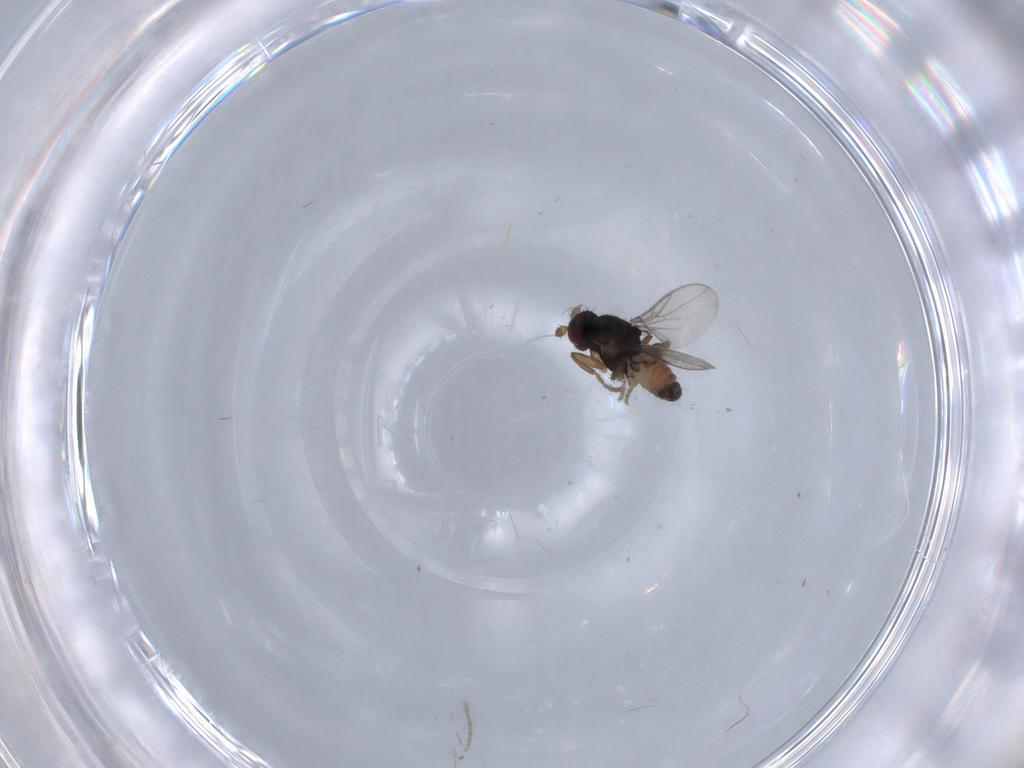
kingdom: Animalia
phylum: Arthropoda
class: Insecta
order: Diptera
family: Sphaeroceridae
